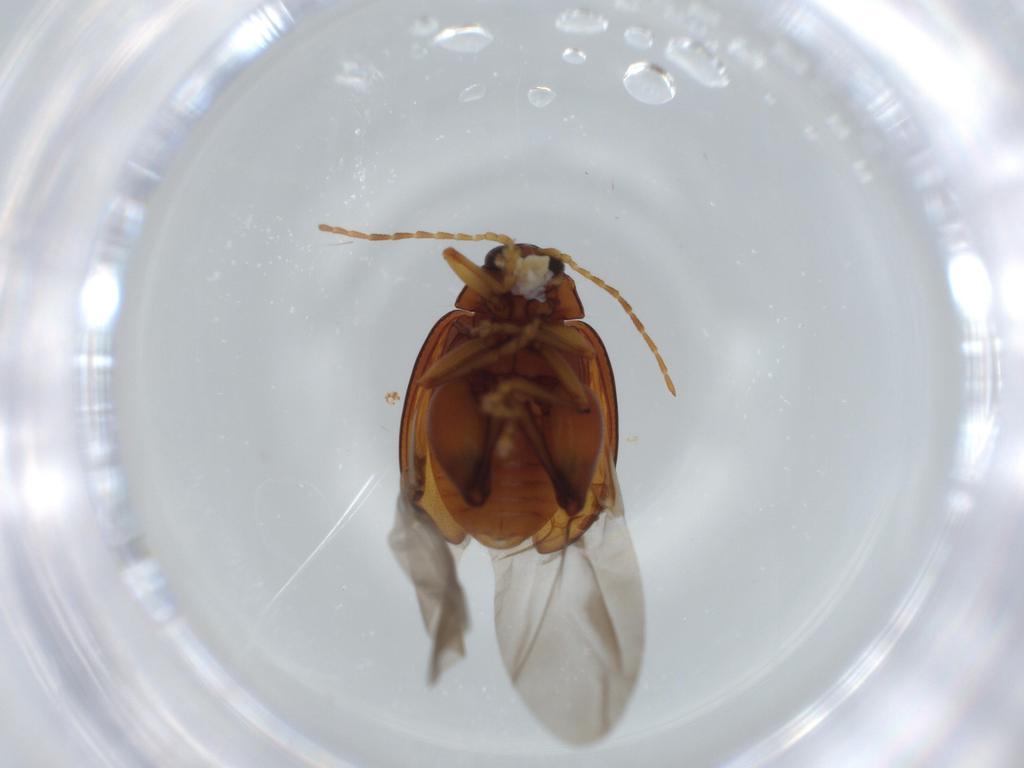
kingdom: Animalia
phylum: Arthropoda
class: Insecta
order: Coleoptera
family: Chrysomelidae
